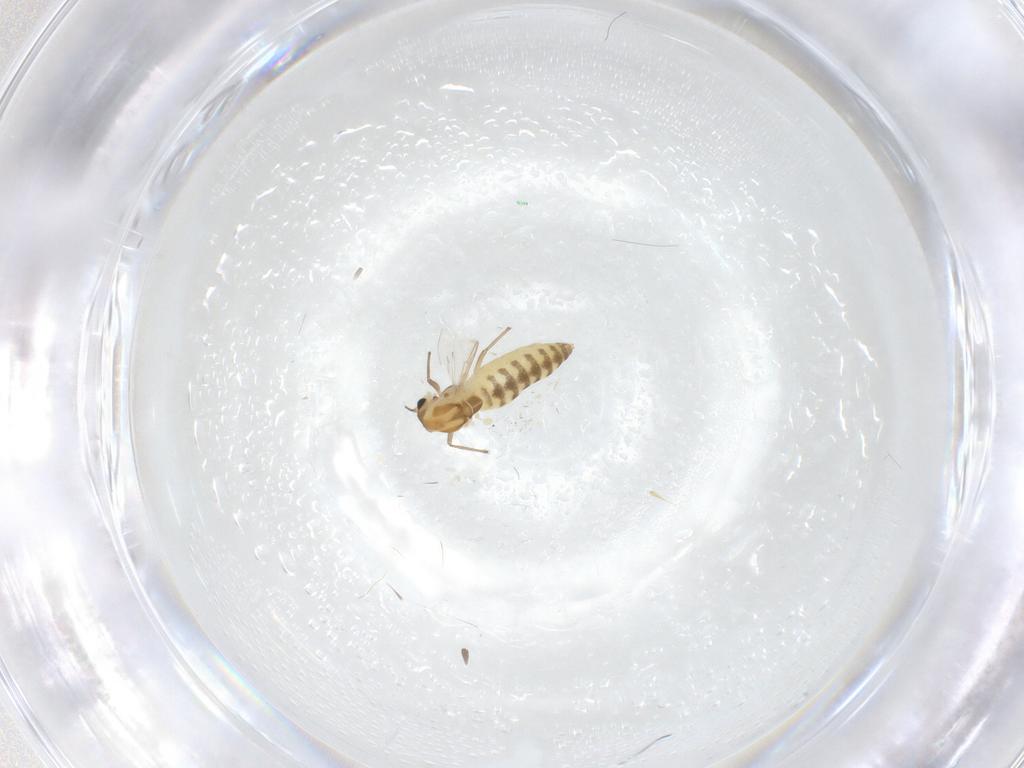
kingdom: Animalia
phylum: Arthropoda
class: Insecta
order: Diptera
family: Chironomidae
